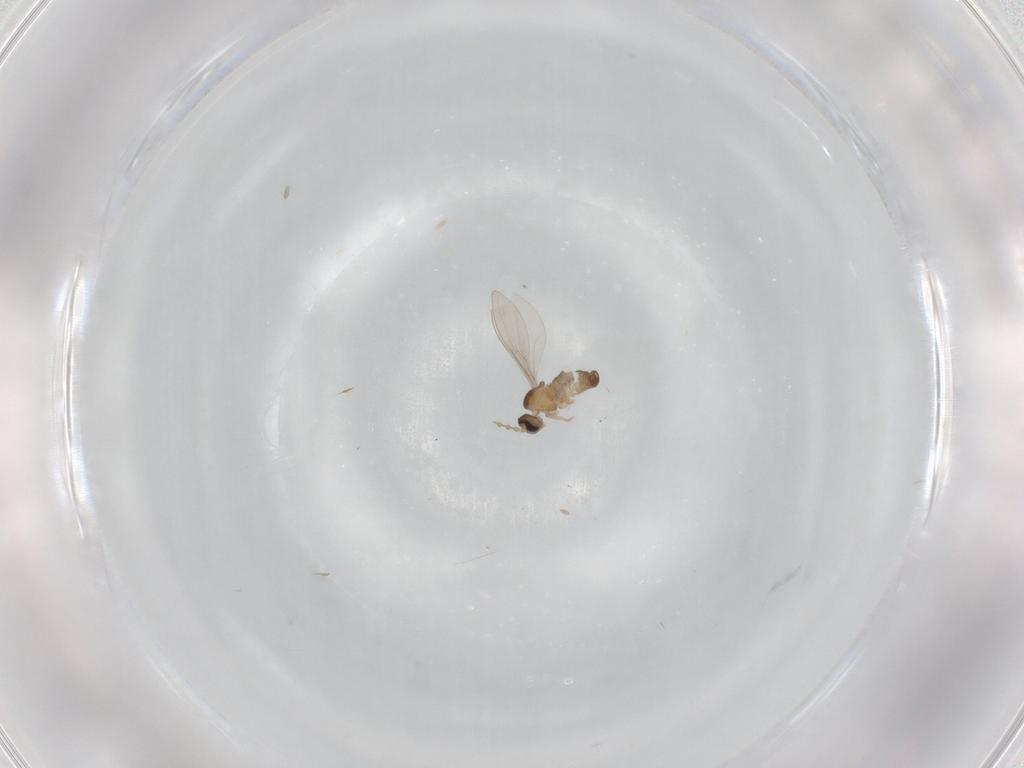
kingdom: Animalia
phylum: Arthropoda
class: Insecta
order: Diptera
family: Cecidomyiidae
